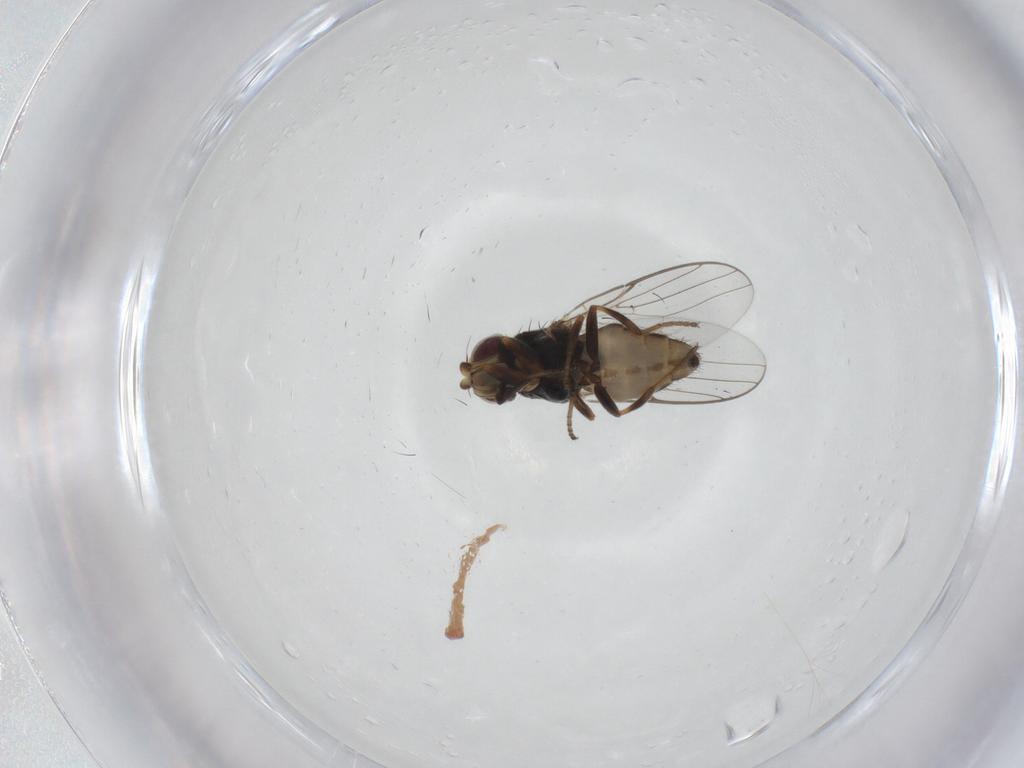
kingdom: Animalia
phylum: Arthropoda
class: Insecta
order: Diptera
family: Chloropidae
